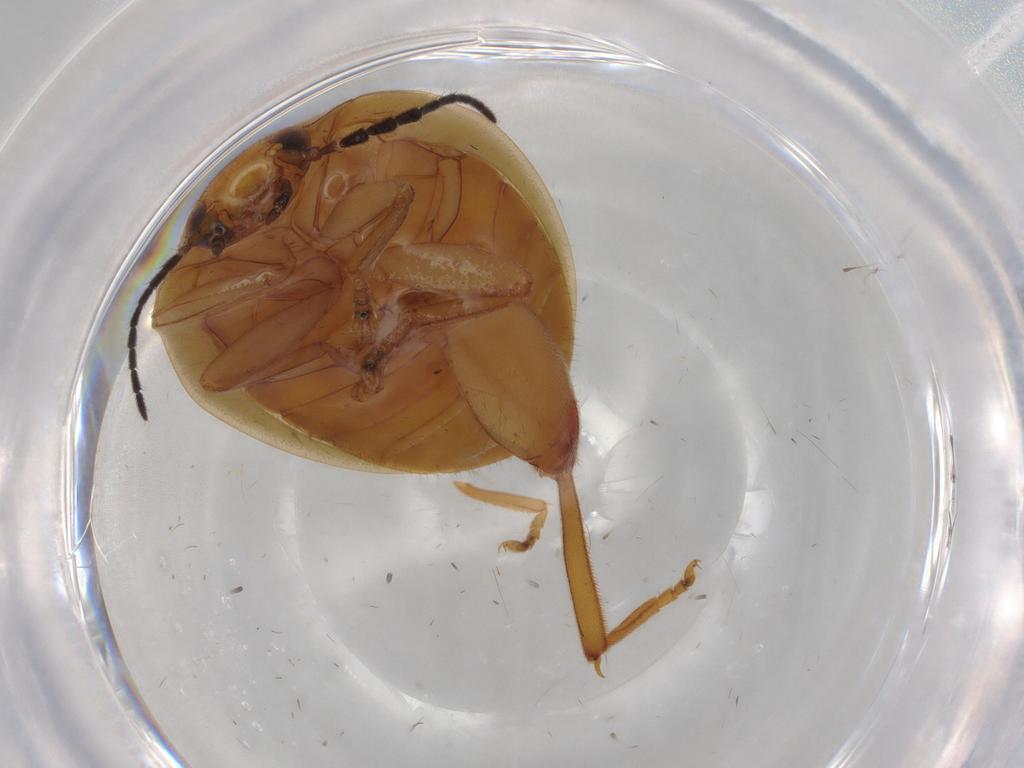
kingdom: Animalia
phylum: Arthropoda
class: Insecta
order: Coleoptera
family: Scirtidae
